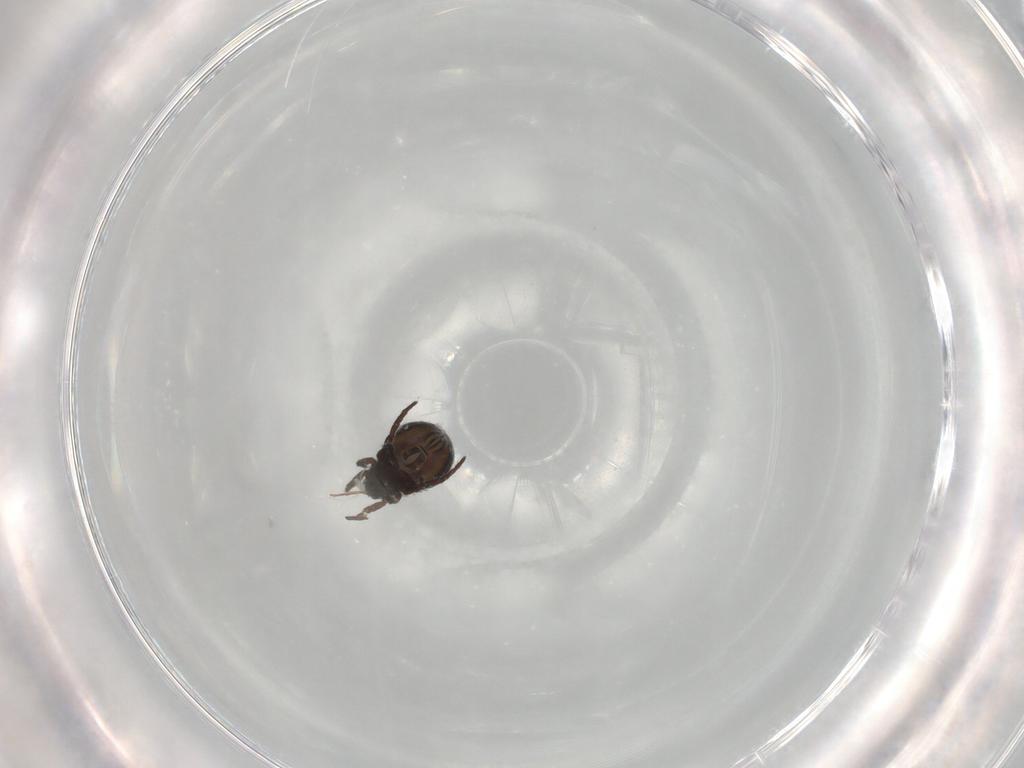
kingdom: Animalia
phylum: Arthropoda
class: Arachnida
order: Sarcoptiformes
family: Crotoniidae
